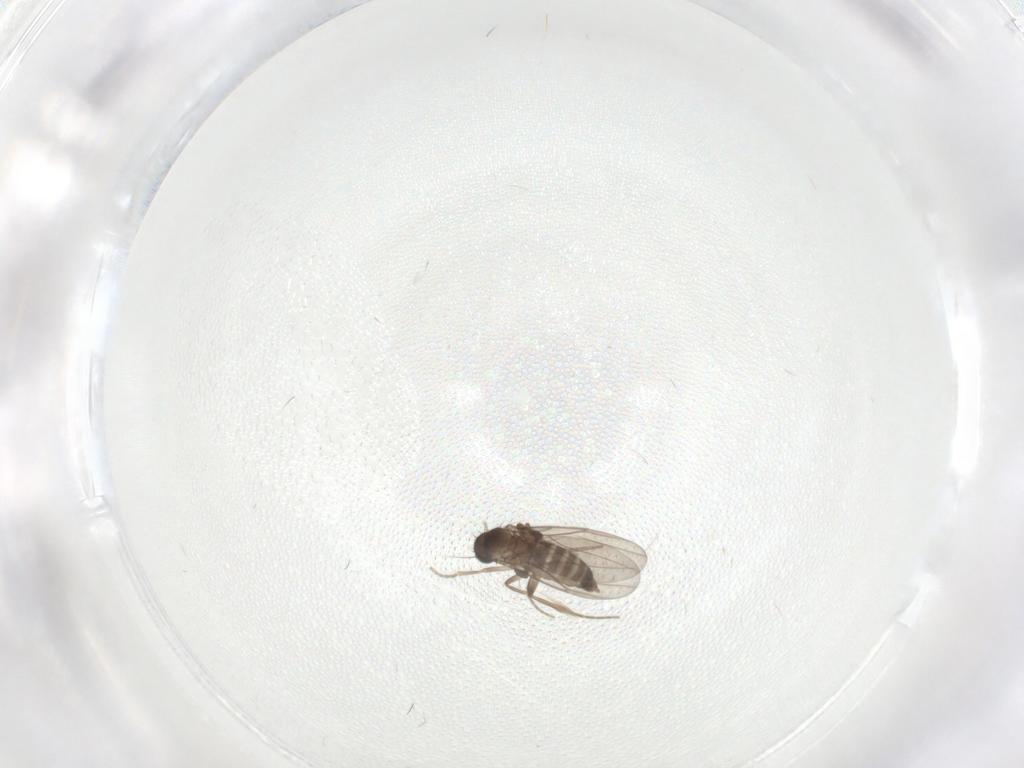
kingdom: Animalia
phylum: Arthropoda
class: Insecta
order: Diptera
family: Phoridae
